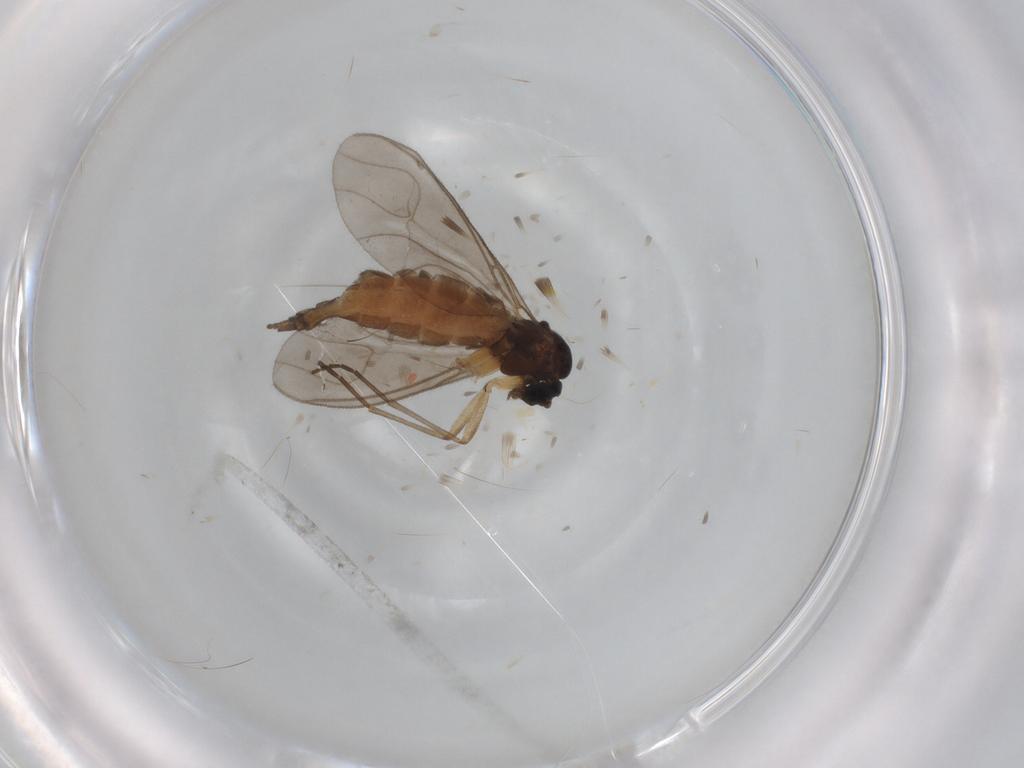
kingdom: Animalia
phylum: Arthropoda
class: Insecta
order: Diptera
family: Sciaridae
